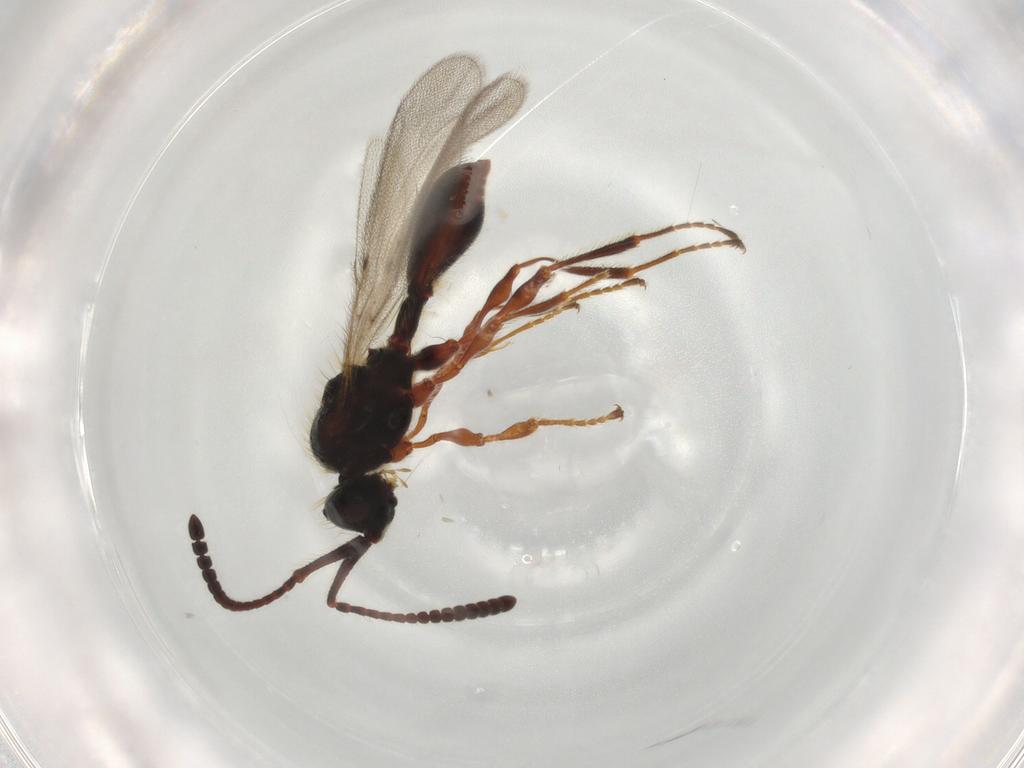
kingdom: Animalia
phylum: Arthropoda
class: Insecta
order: Hymenoptera
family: Diapriidae
